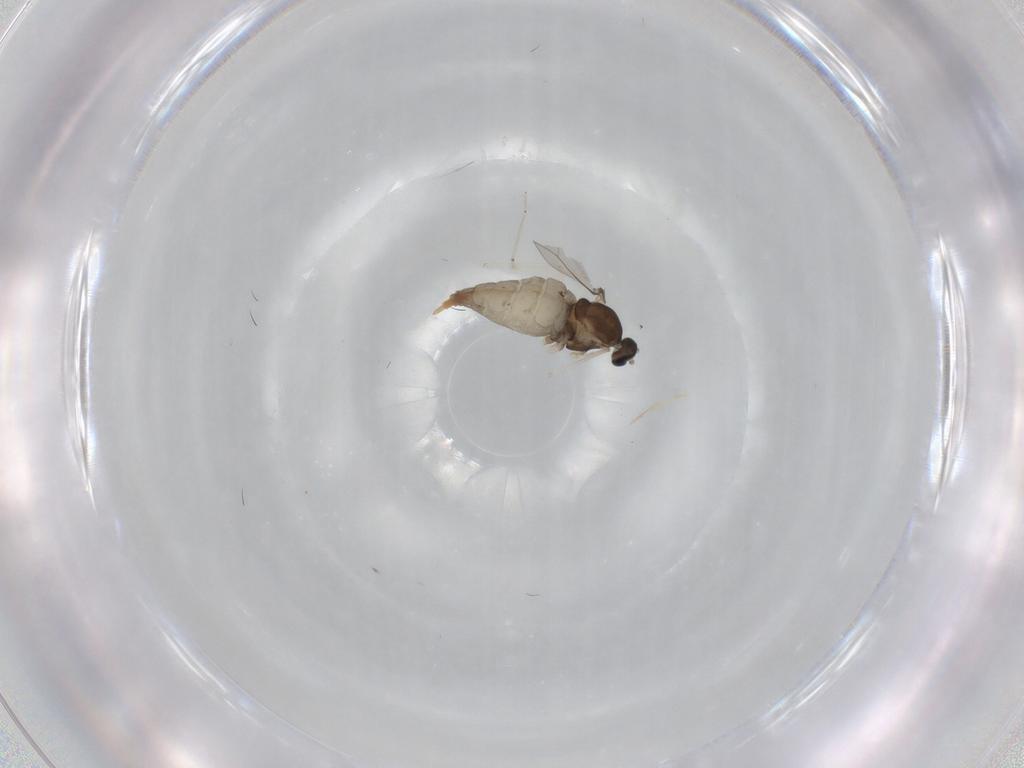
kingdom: Animalia
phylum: Arthropoda
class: Insecta
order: Diptera
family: Cecidomyiidae
